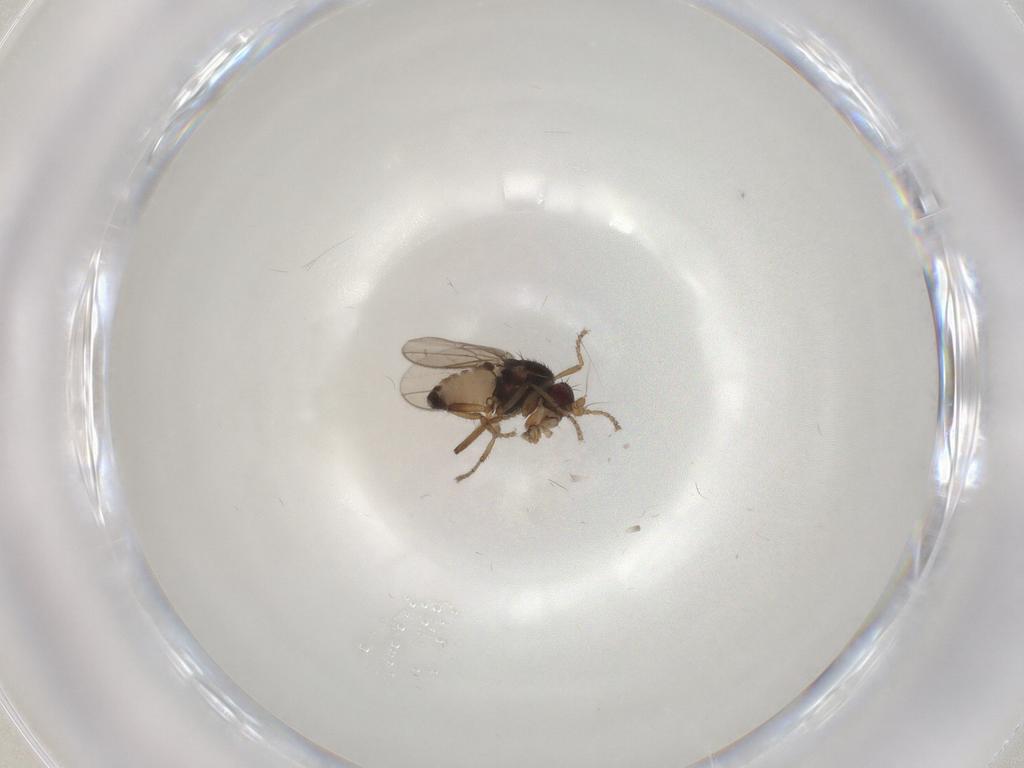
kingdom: Animalia
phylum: Arthropoda
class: Insecta
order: Diptera
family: Sphaeroceridae
